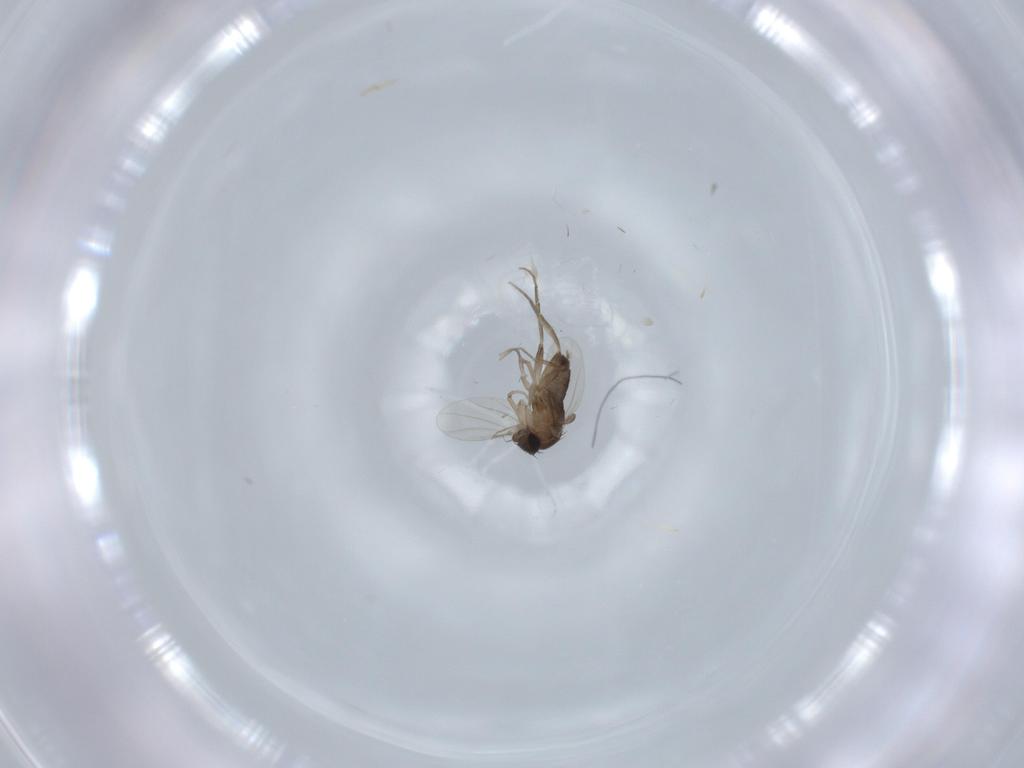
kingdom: Animalia
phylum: Arthropoda
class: Insecta
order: Diptera
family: Phoridae
